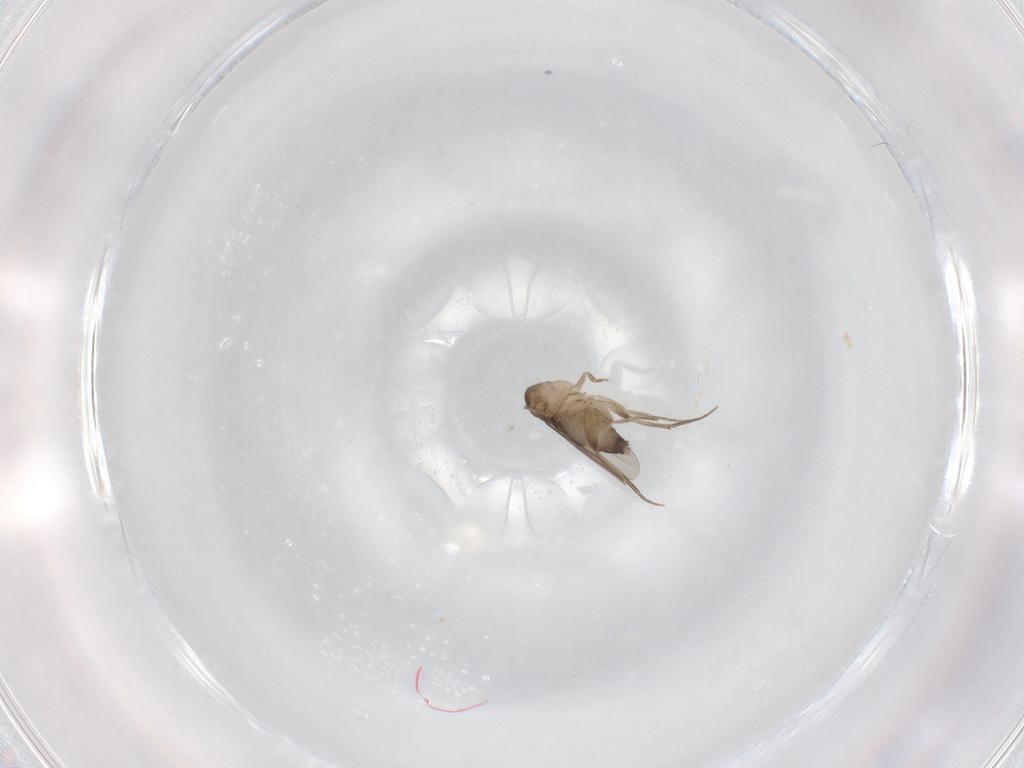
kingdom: Animalia
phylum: Arthropoda
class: Insecta
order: Diptera
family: Phoridae
